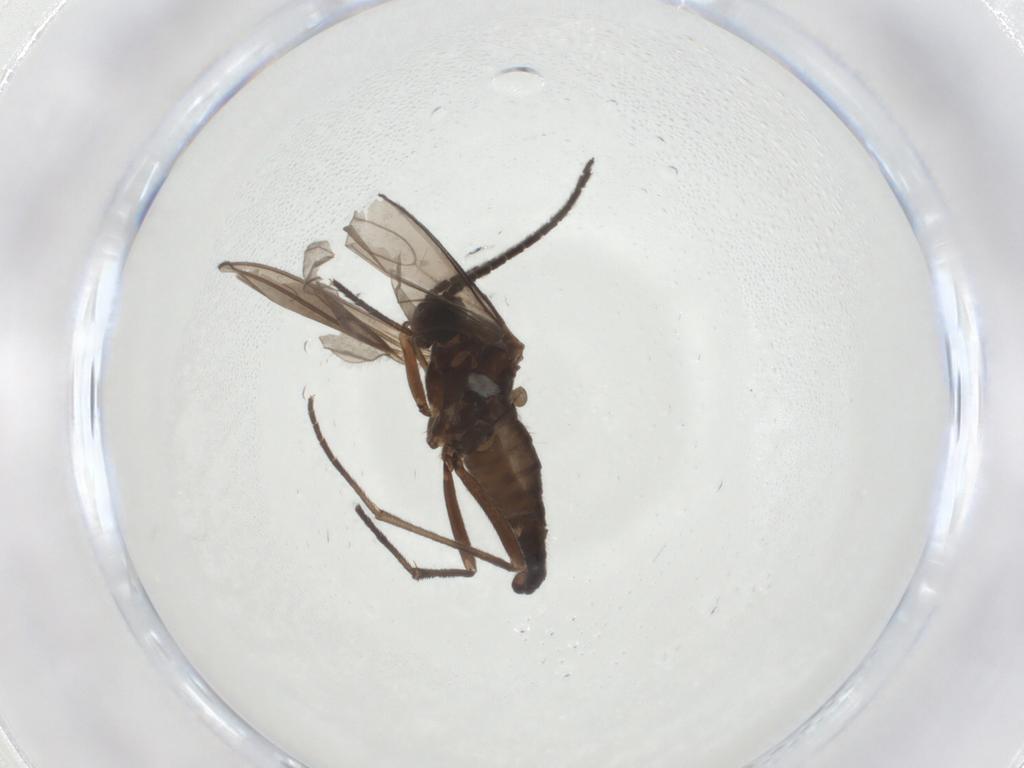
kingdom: Animalia
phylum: Arthropoda
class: Insecta
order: Diptera
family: Sciaridae
